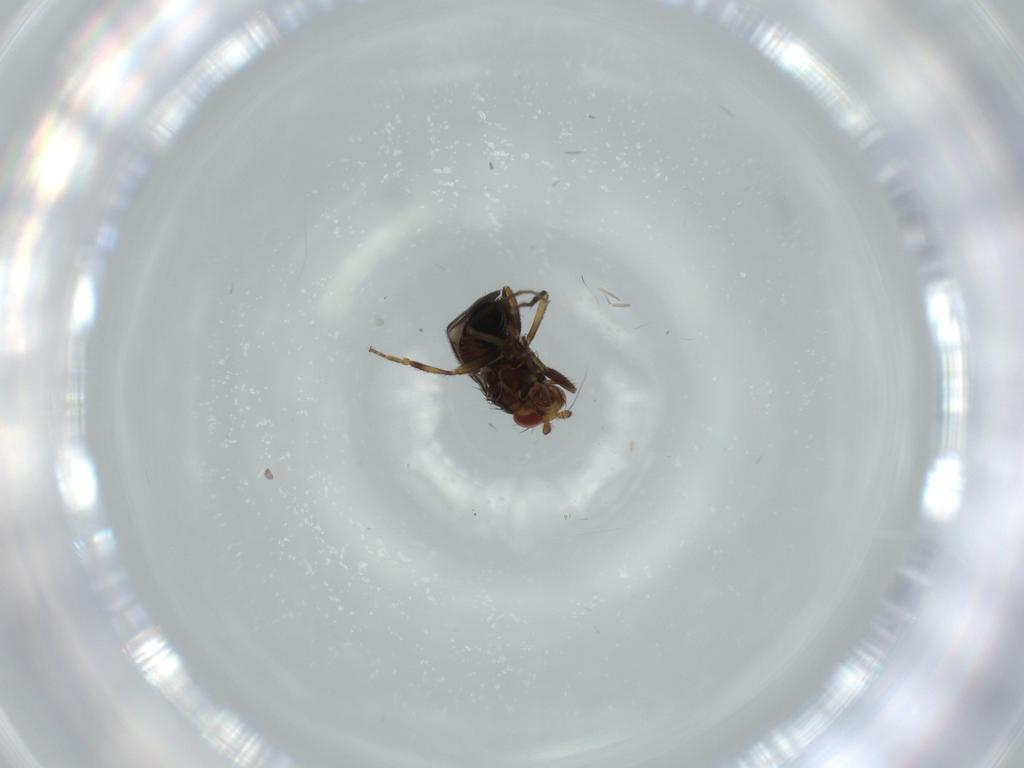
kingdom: Animalia
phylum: Arthropoda
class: Insecta
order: Diptera
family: Sphaeroceridae
